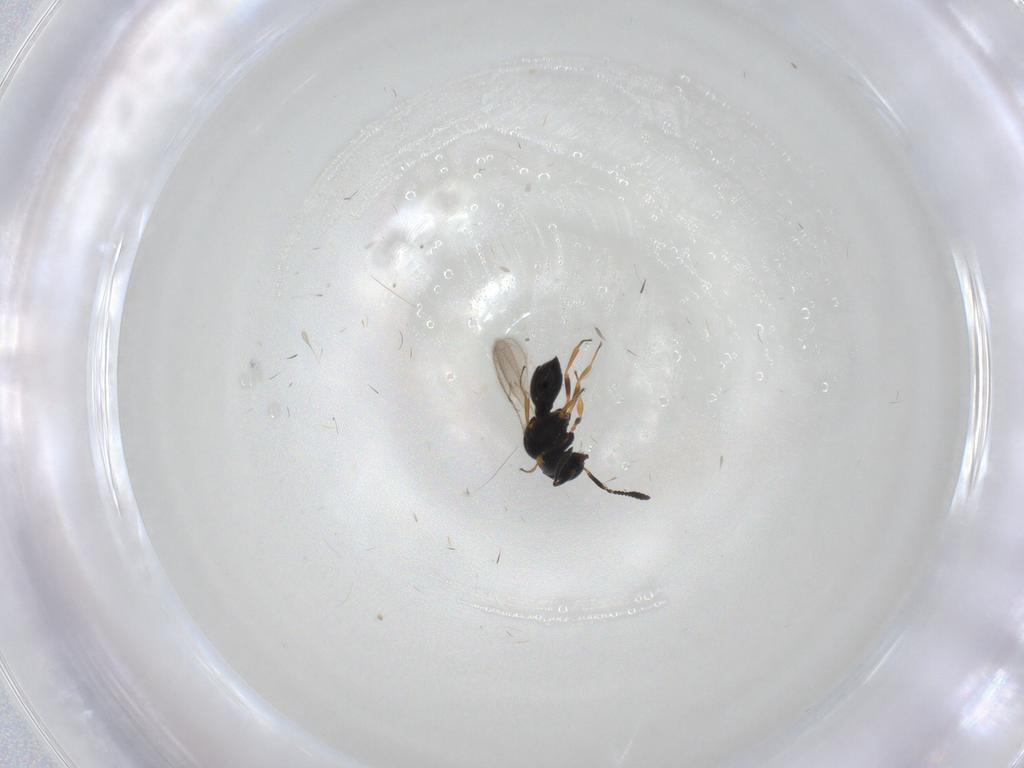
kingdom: Animalia
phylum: Arthropoda
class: Insecta
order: Hymenoptera
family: Scelionidae
